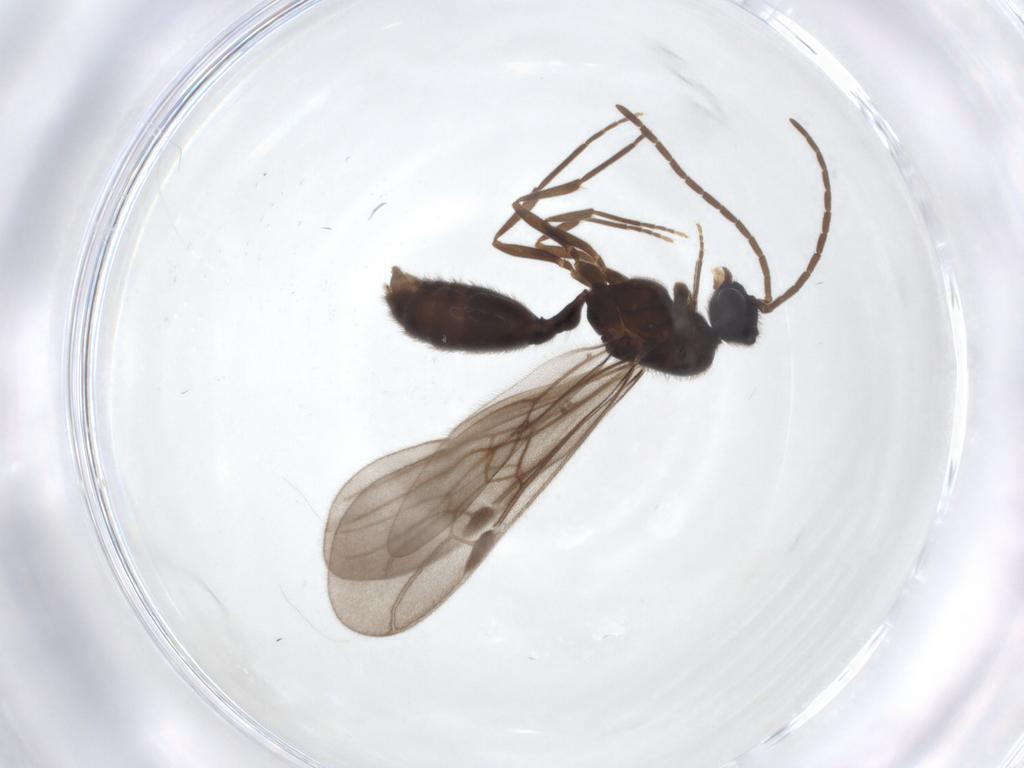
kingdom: Animalia
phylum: Arthropoda
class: Insecta
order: Hymenoptera
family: Formicidae
